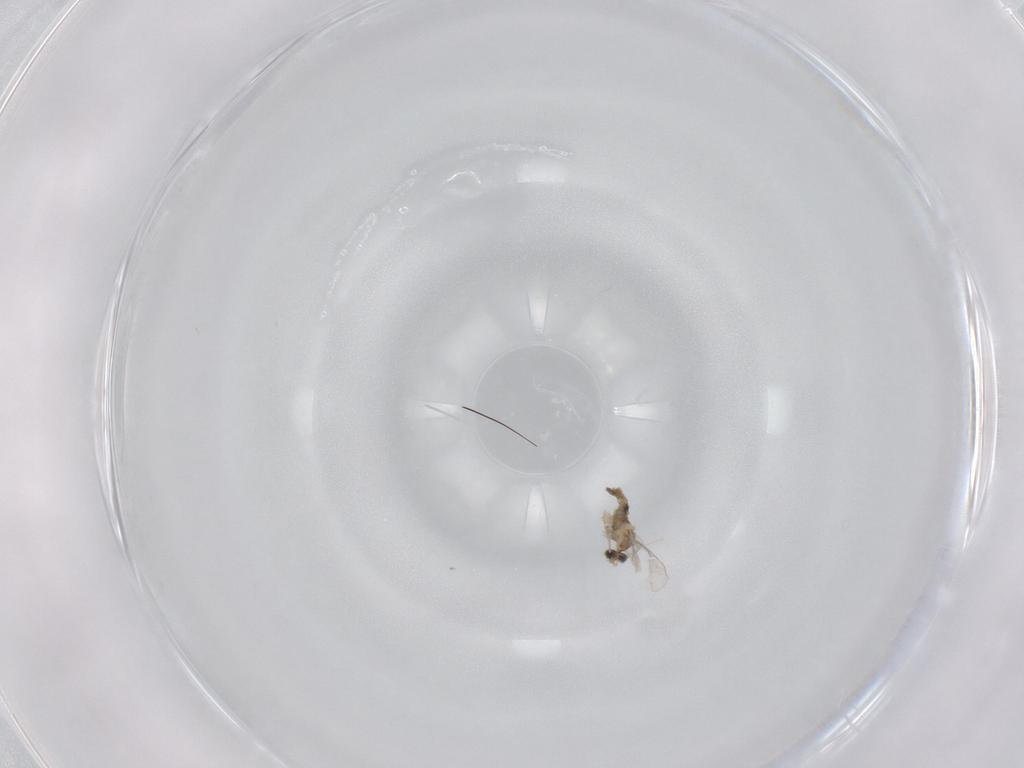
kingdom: Animalia
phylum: Arthropoda
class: Insecta
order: Diptera
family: Cecidomyiidae
